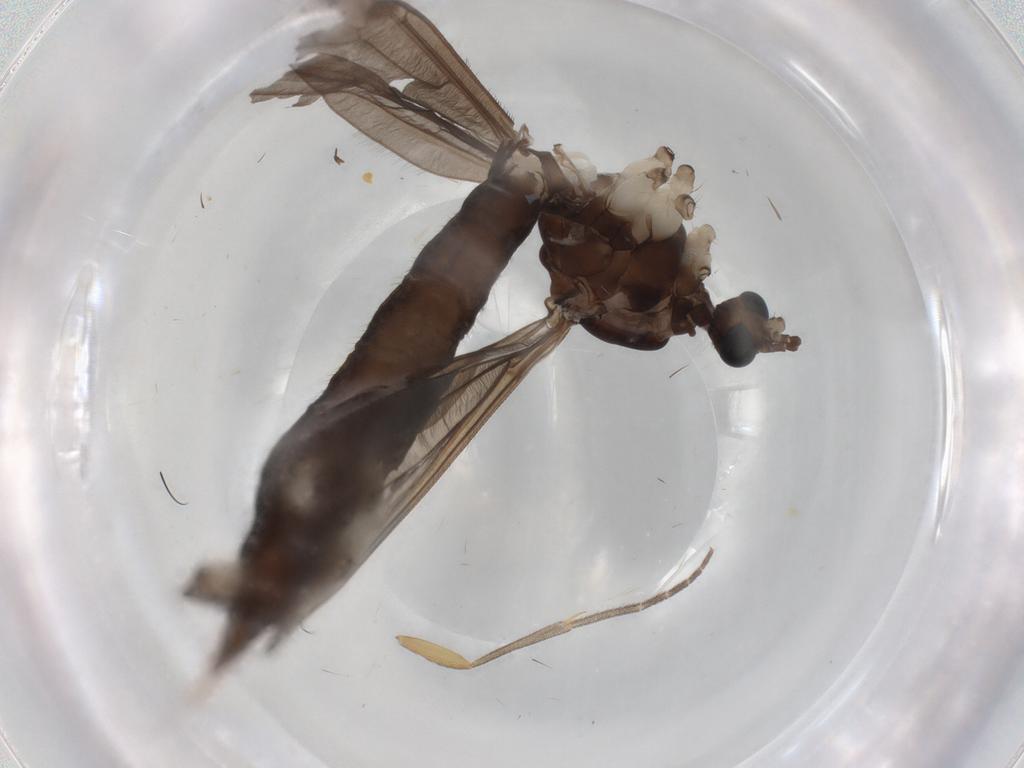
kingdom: Animalia
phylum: Arthropoda
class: Insecta
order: Diptera
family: Limoniidae
